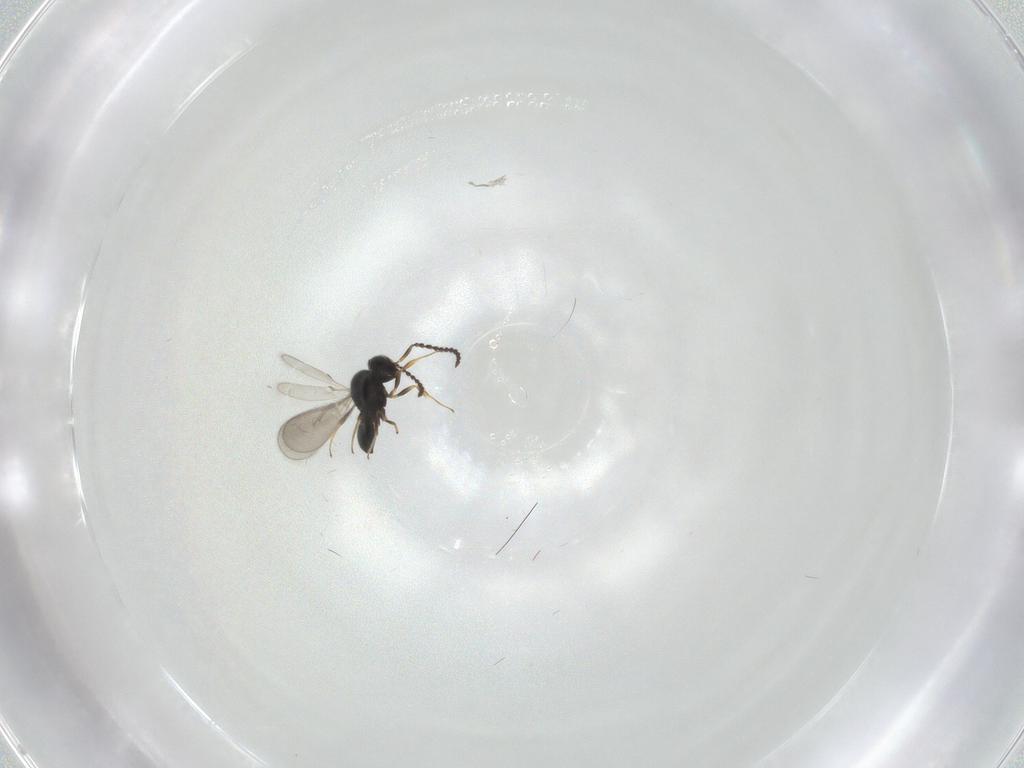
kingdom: Animalia
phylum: Arthropoda
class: Insecta
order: Hymenoptera
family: Scelionidae
